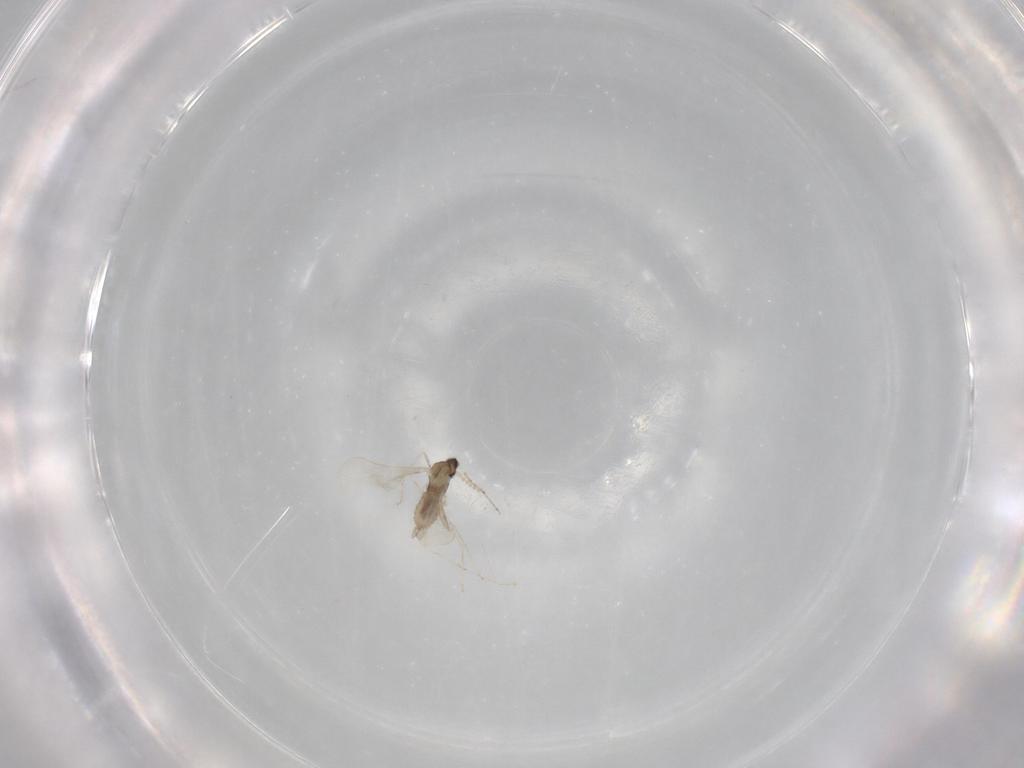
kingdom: Animalia
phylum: Arthropoda
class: Insecta
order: Diptera
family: Cecidomyiidae
